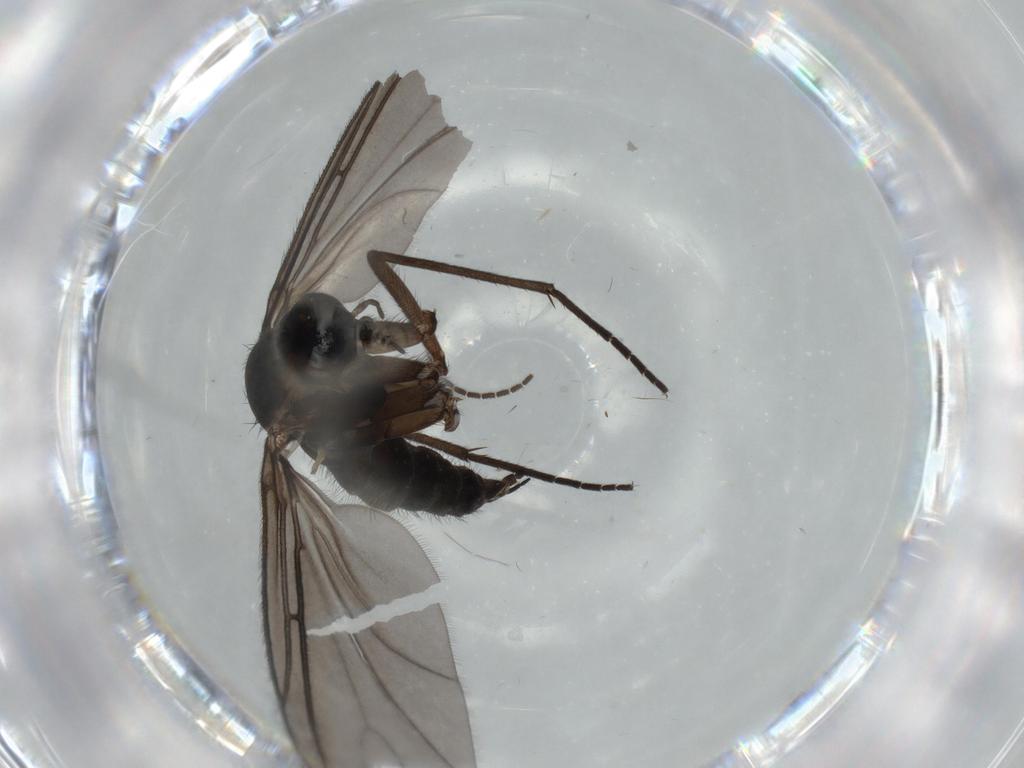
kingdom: Animalia
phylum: Arthropoda
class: Insecta
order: Diptera
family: Sciaridae
